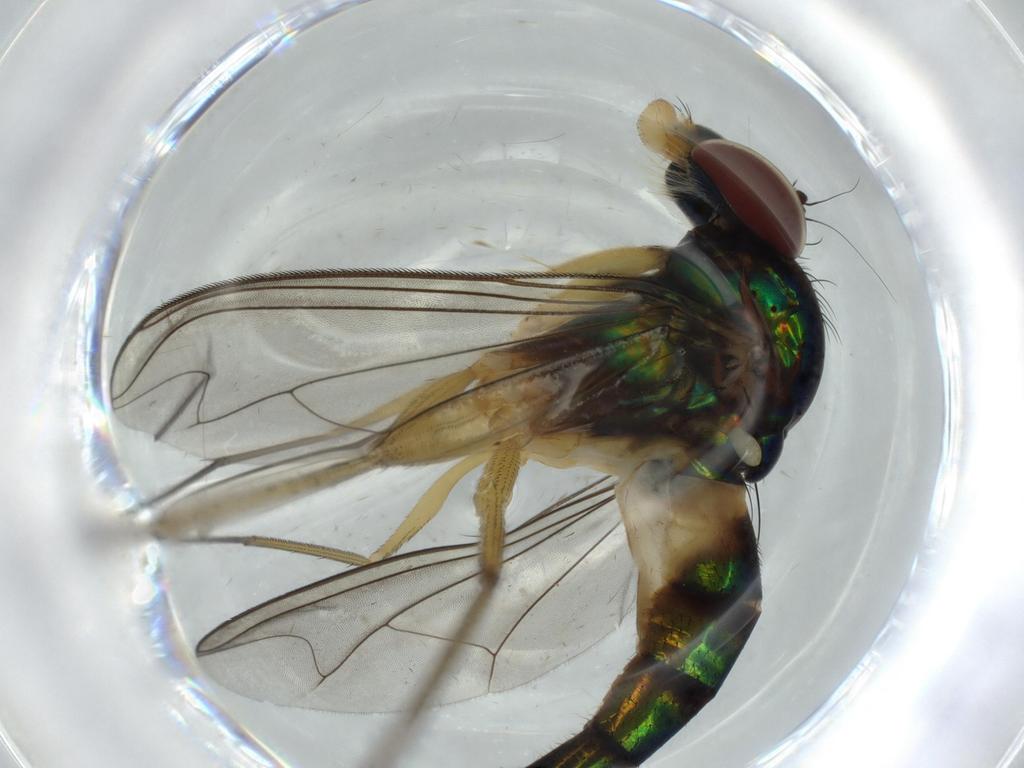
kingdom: Animalia
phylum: Arthropoda
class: Insecta
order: Diptera
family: Dolichopodidae
